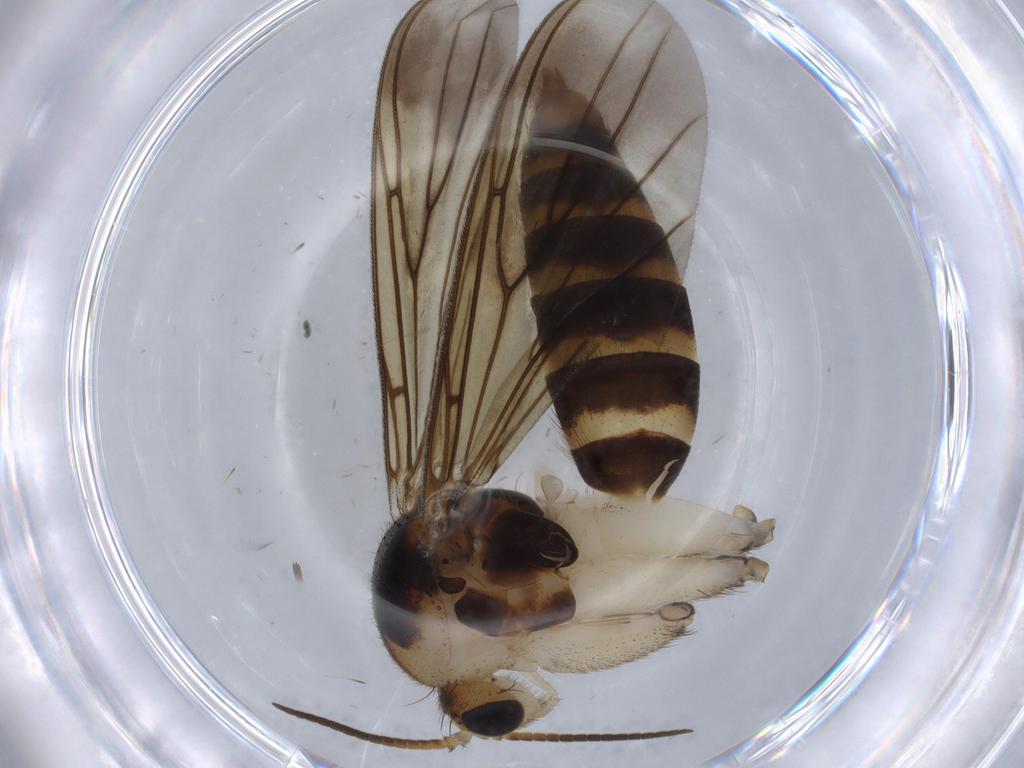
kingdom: Animalia
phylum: Arthropoda
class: Insecta
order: Diptera
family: Mycetophilidae
